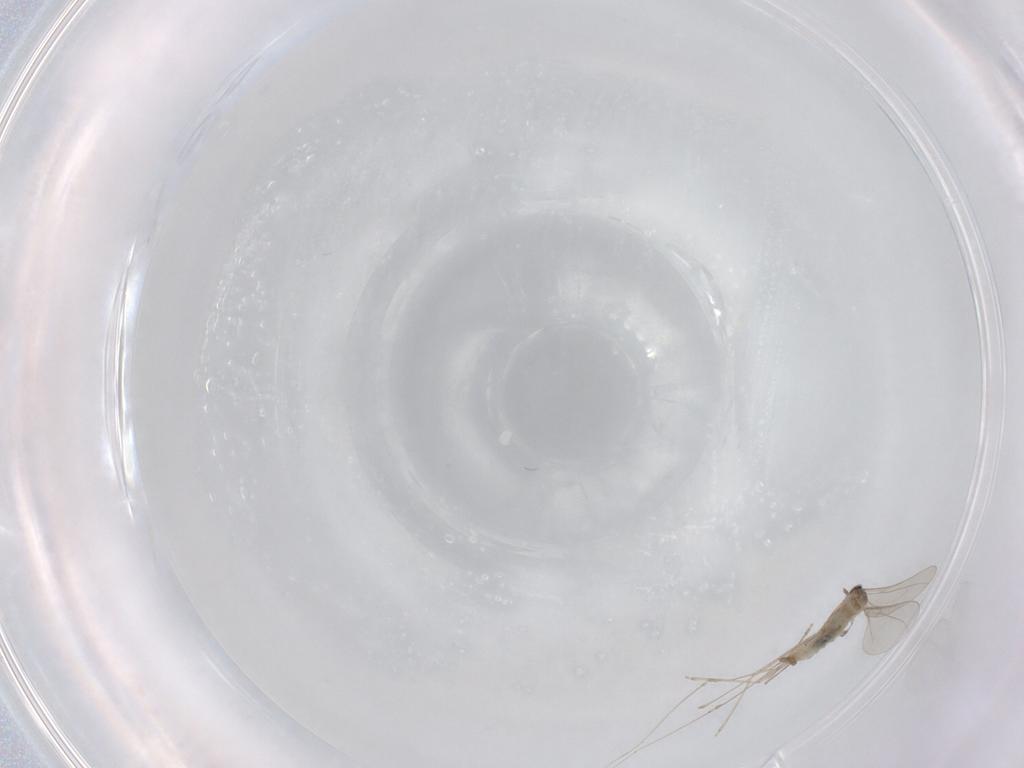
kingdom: Animalia
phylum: Arthropoda
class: Insecta
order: Diptera
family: Cecidomyiidae
